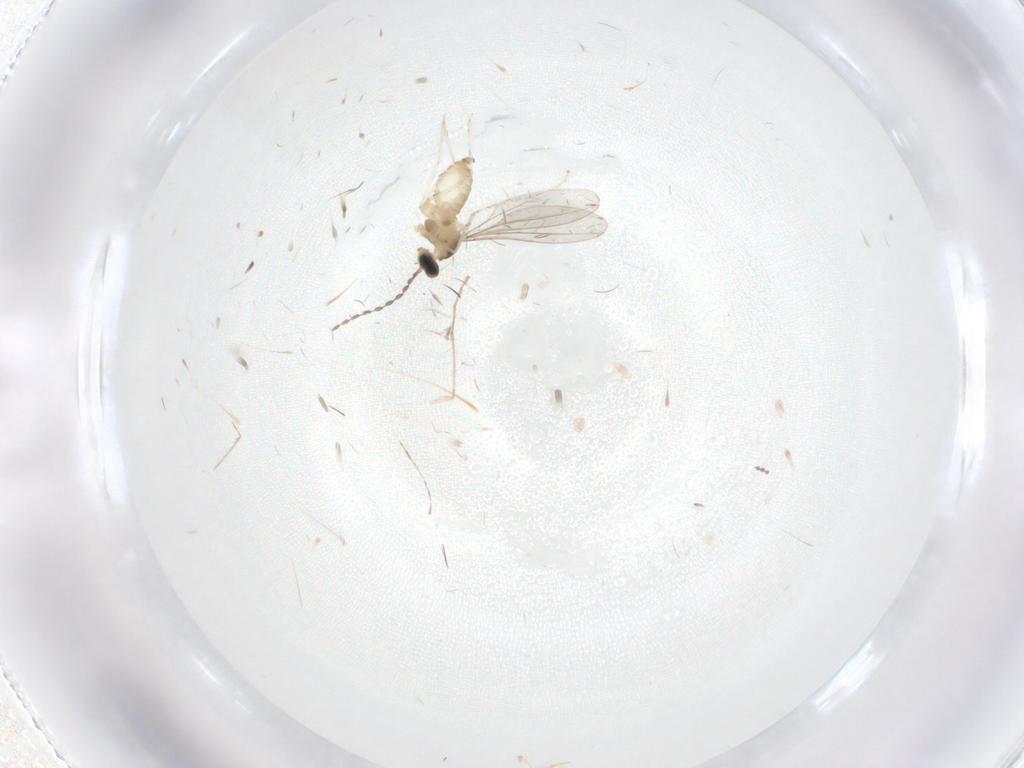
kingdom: Animalia
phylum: Arthropoda
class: Insecta
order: Diptera
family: Cecidomyiidae
